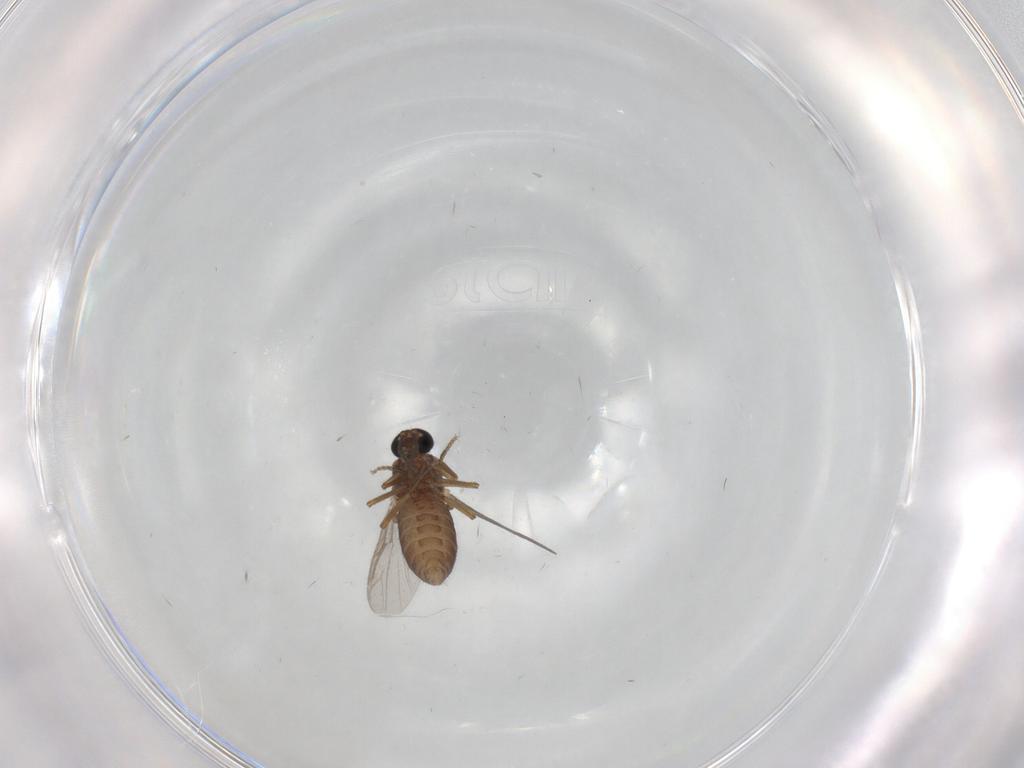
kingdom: Animalia
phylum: Arthropoda
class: Insecta
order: Diptera
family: Ceratopogonidae
